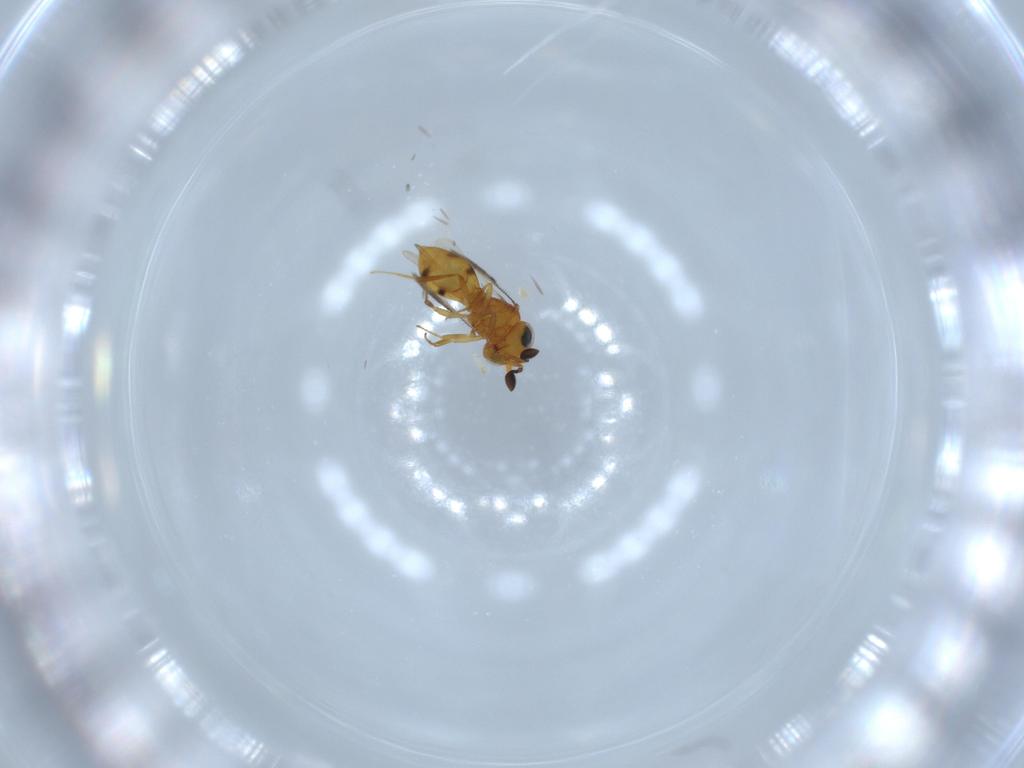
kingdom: Animalia
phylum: Arthropoda
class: Insecta
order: Hymenoptera
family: Scelionidae
